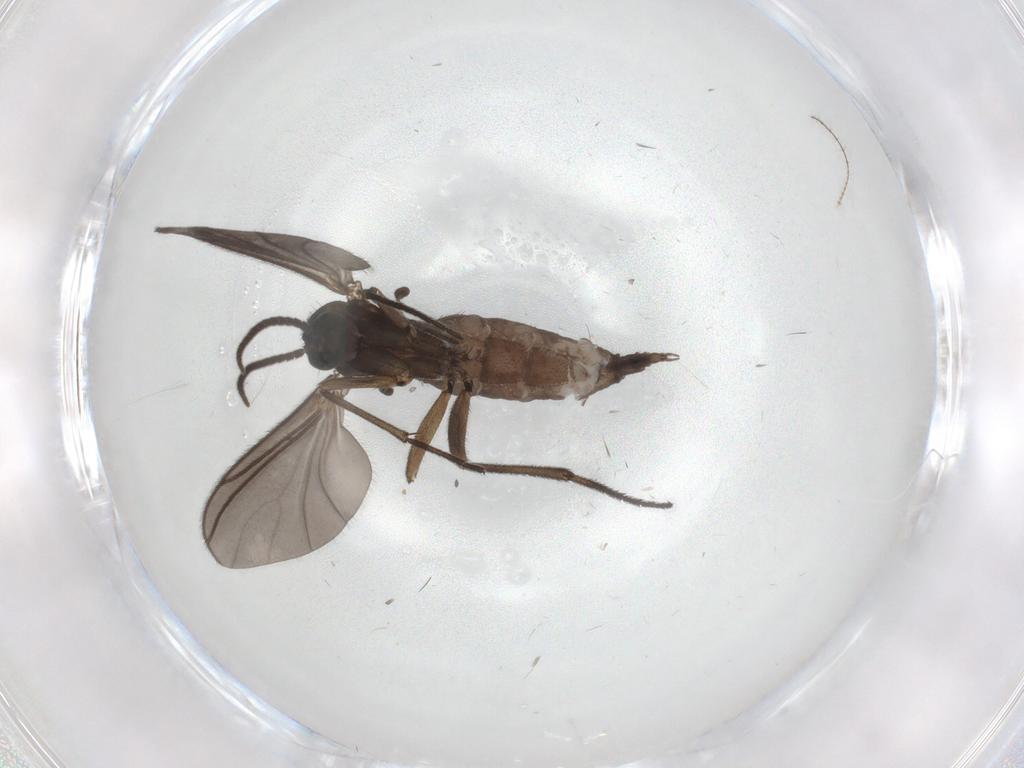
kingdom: Animalia
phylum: Arthropoda
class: Insecta
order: Diptera
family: Sciaridae
